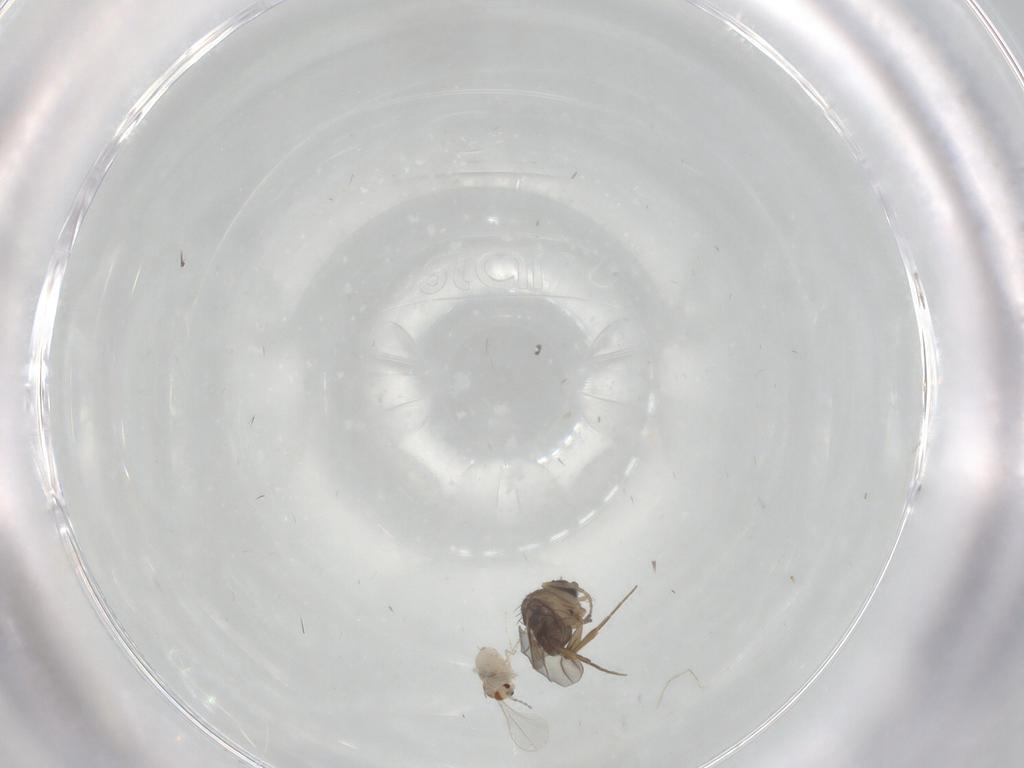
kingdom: Animalia
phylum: Arthropoda
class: Insecta
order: Diptera
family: Cecidomyiidae
